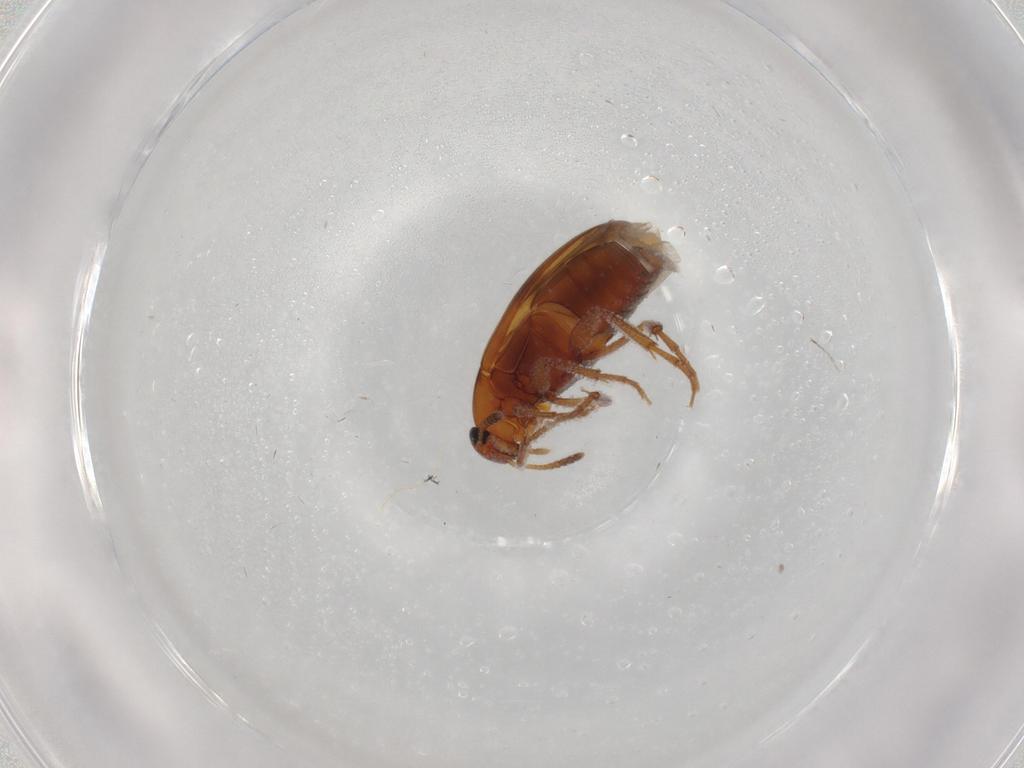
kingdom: Animalia
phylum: Arthropoda
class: Insecta
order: Coleoptera
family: Scraptiidae
